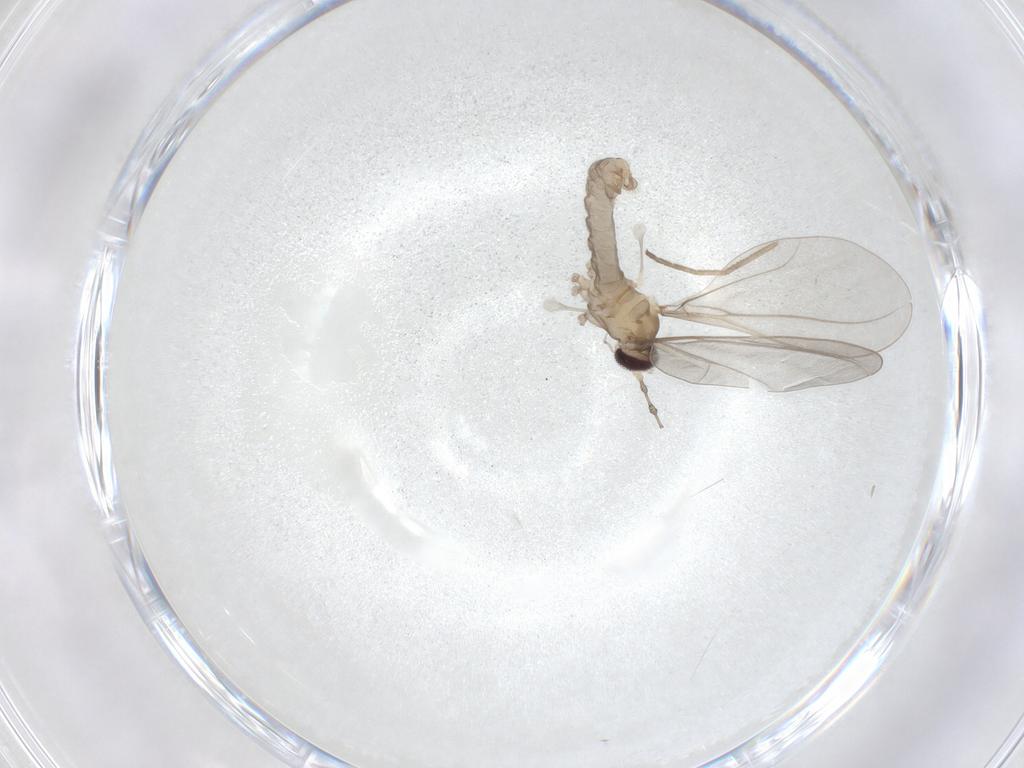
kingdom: Animalia
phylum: Arthropoda
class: Insecta
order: Diptera
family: Cecidomyiidae
